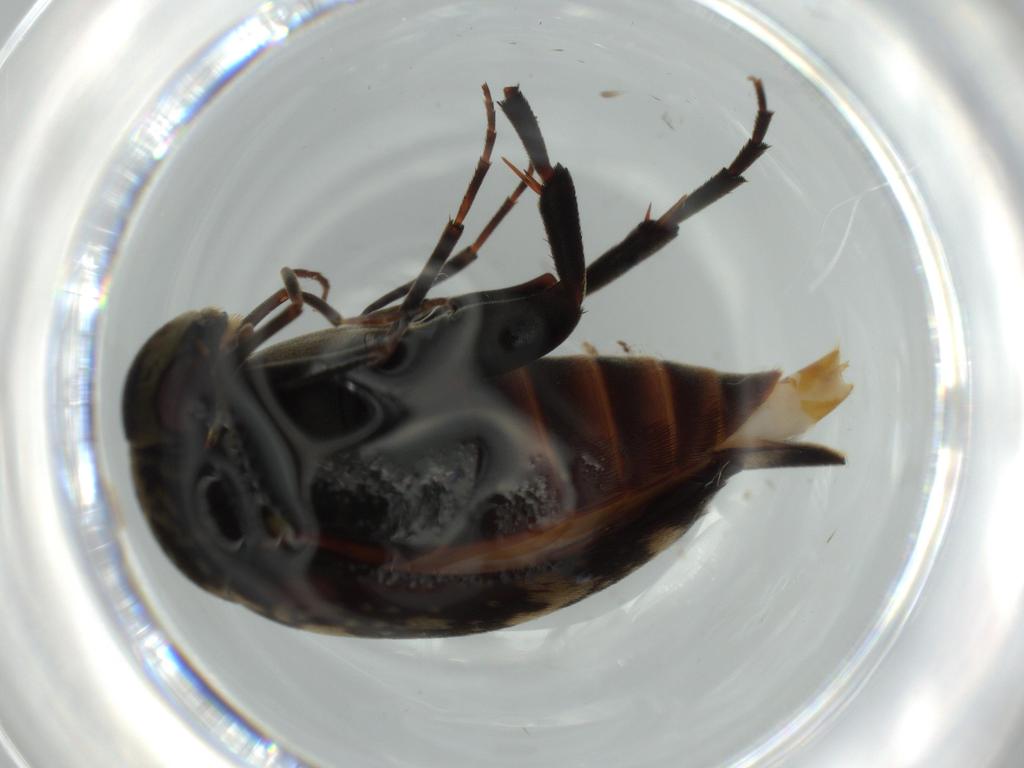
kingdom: Animalia
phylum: Arthropoda
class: Insecta
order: Coleoptera
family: Mordellidae
